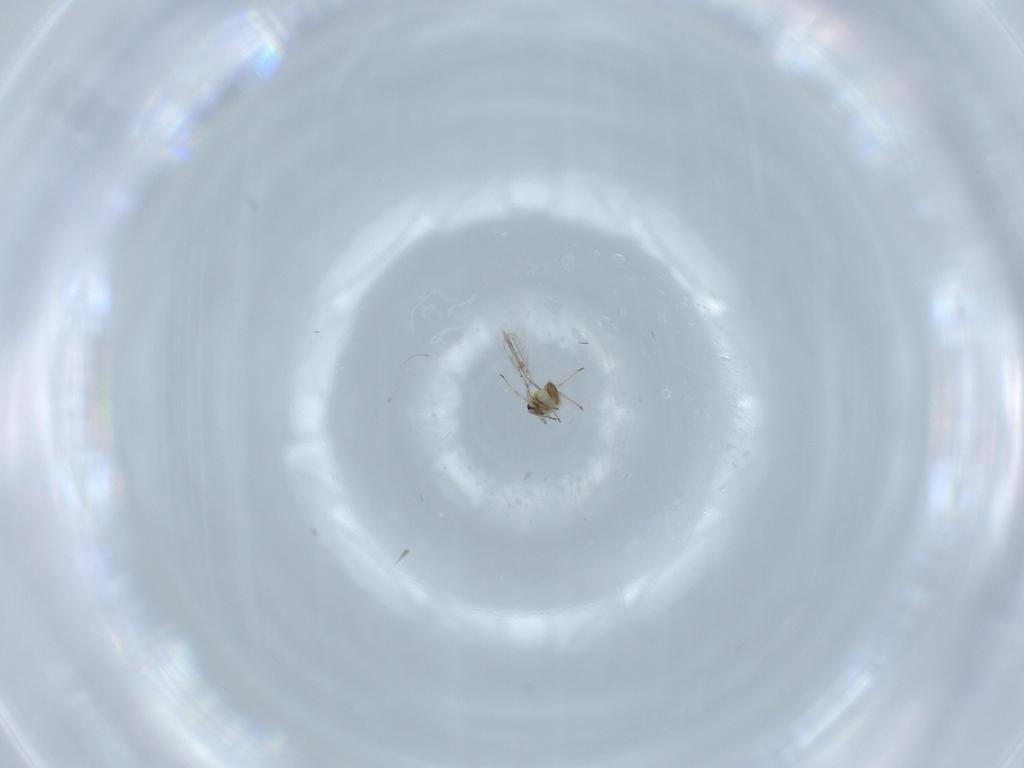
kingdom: Animalia
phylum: Arthropoda
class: Insecta
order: Hymenoptera
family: Trichogrammatidae
